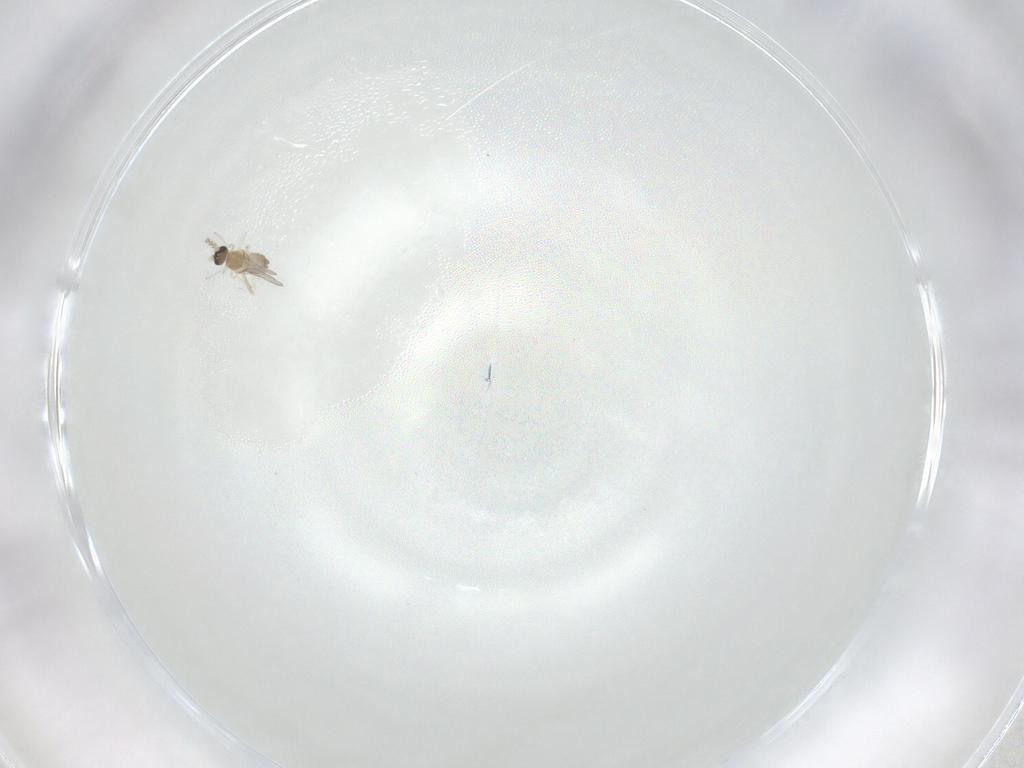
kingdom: Animalia
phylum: Arthropoda
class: Insecta
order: Diptera
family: Cecidomyiidae
